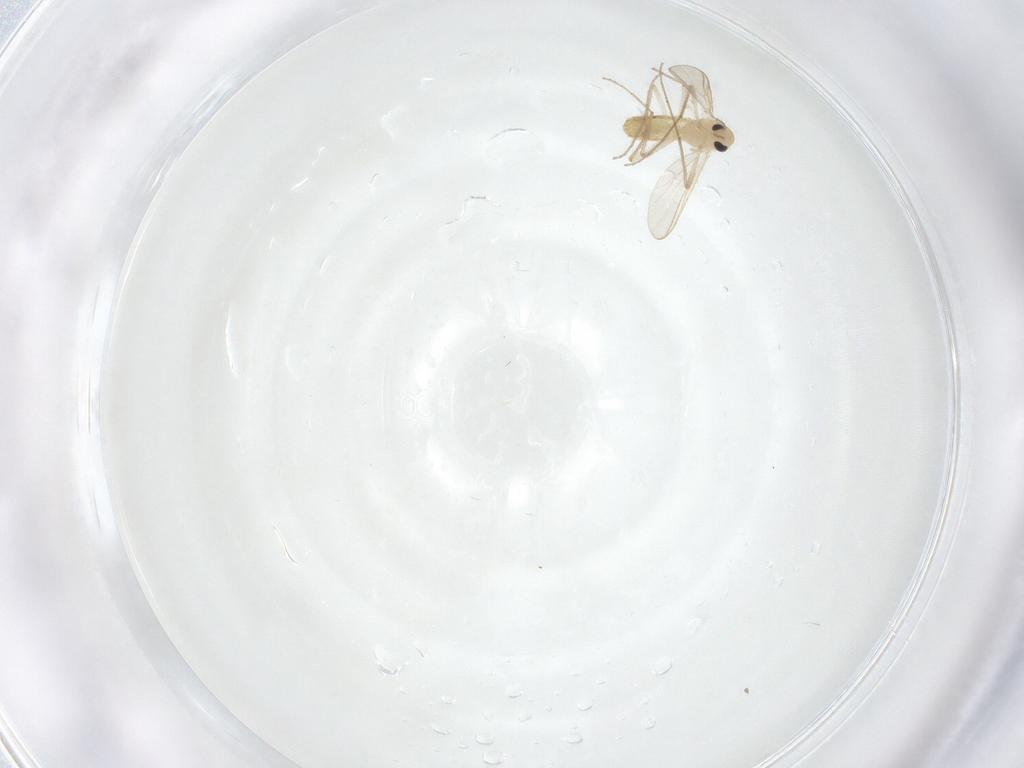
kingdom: Animalia
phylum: Arthropoda
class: Insecta
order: Diptera
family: Chironomidae
